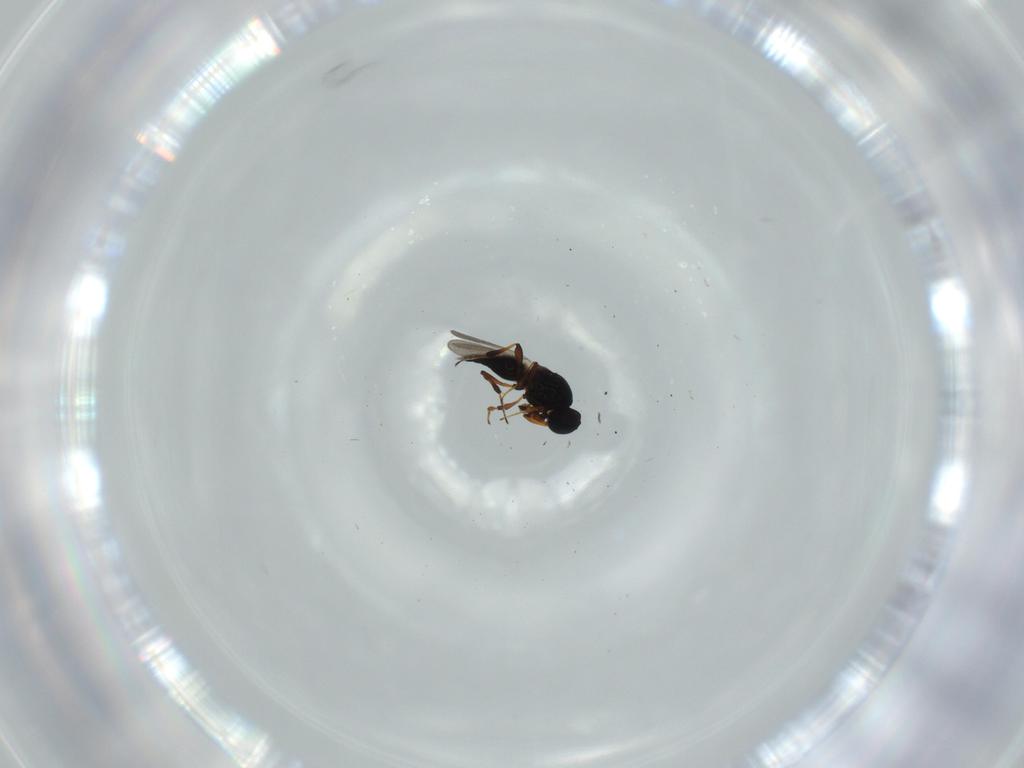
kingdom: Animalia
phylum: Arthropoda
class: Insecta
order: Hymenoptera
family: Platygastridae
